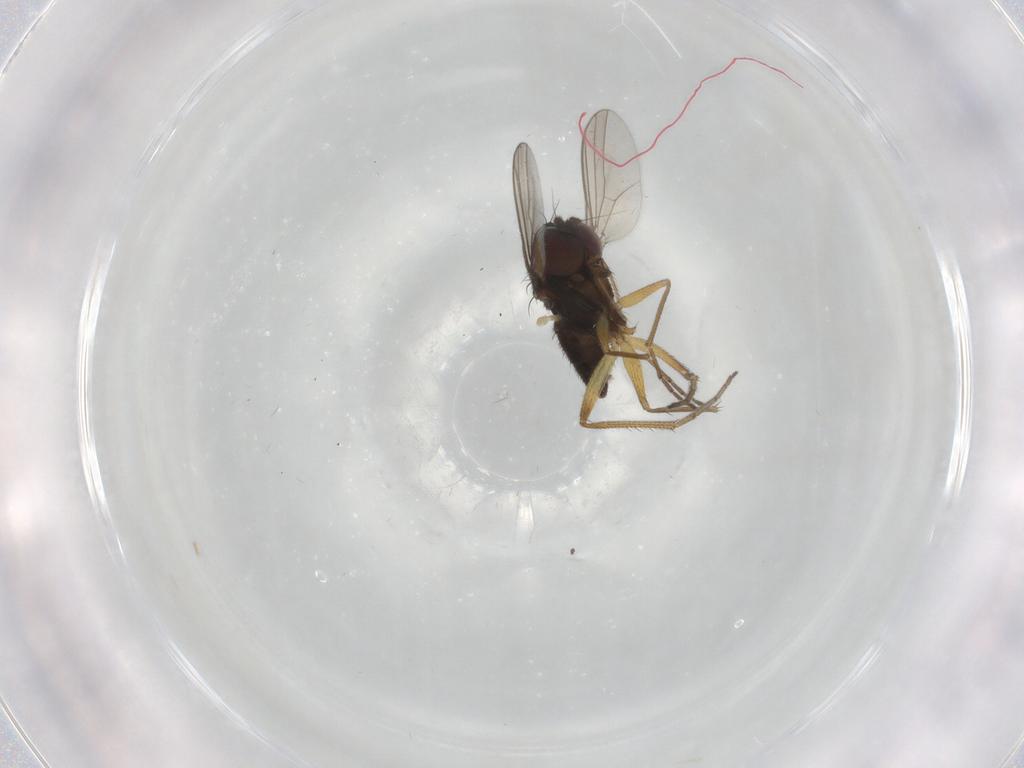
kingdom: Animalia
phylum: Arthropoda
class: Insecta
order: Diptera
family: Dolichopodidae
